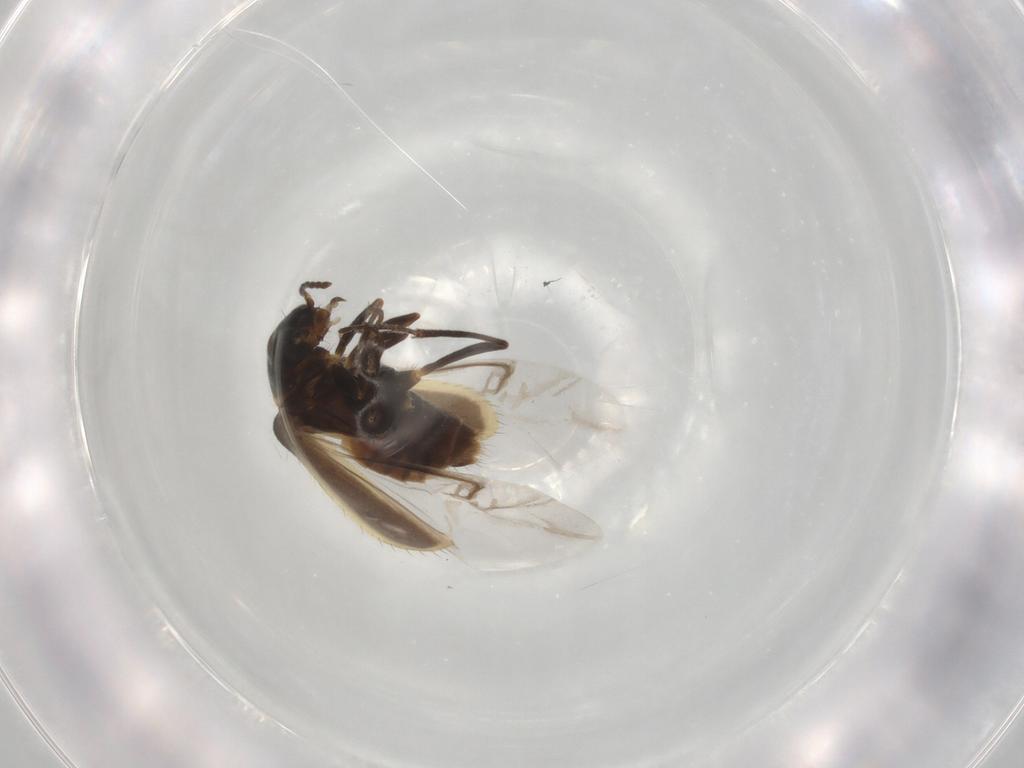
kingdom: Animalia
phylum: Arthropoda
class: Insecta
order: Coleoptera
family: Dasytidae
